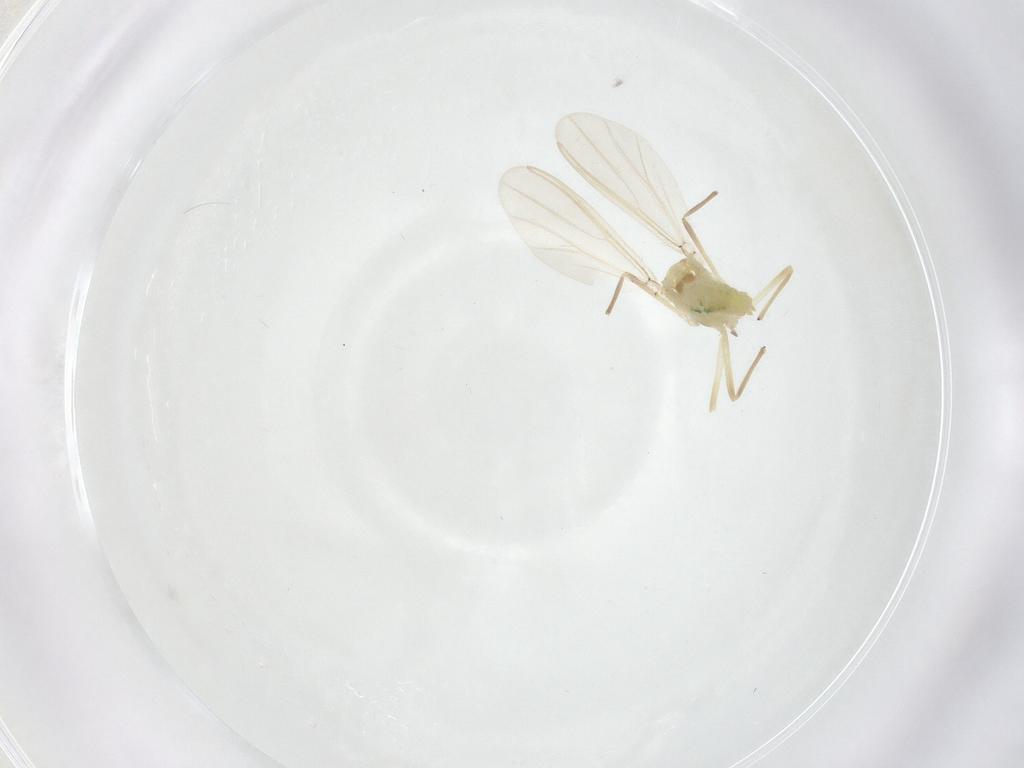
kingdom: Animalia
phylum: Arthropoda
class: Insecta
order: Diptera
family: Chironomidae
